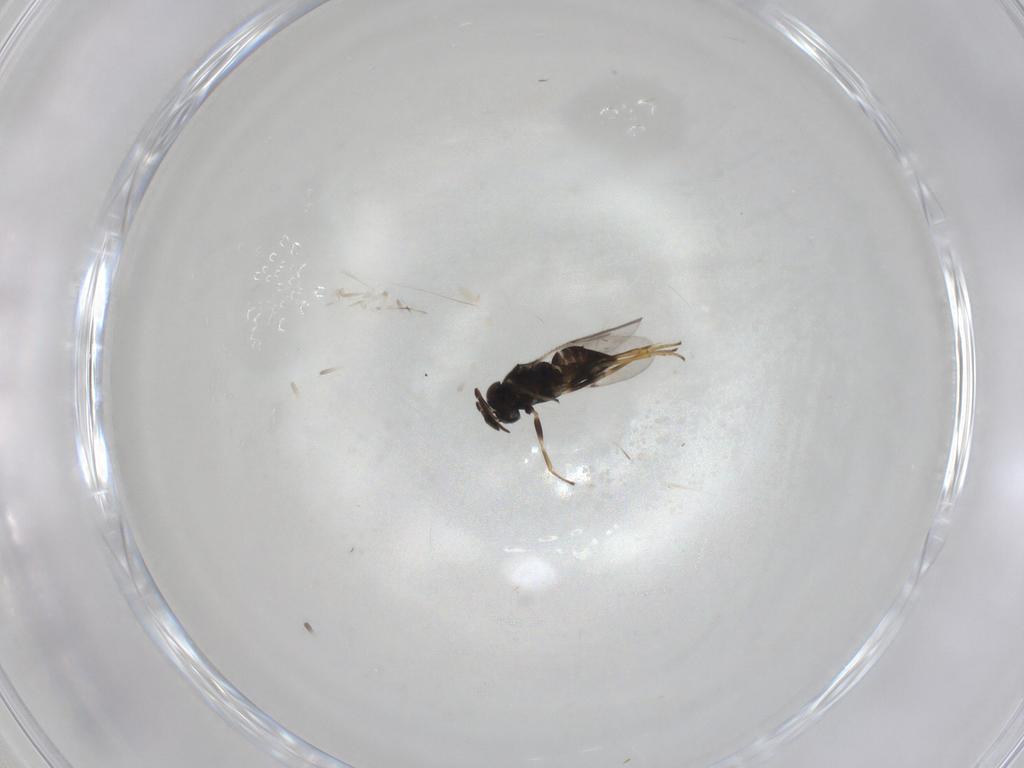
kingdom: Animalia
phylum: Arthropoda
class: Insecta
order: Hymenoptera
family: Encyrtidae
